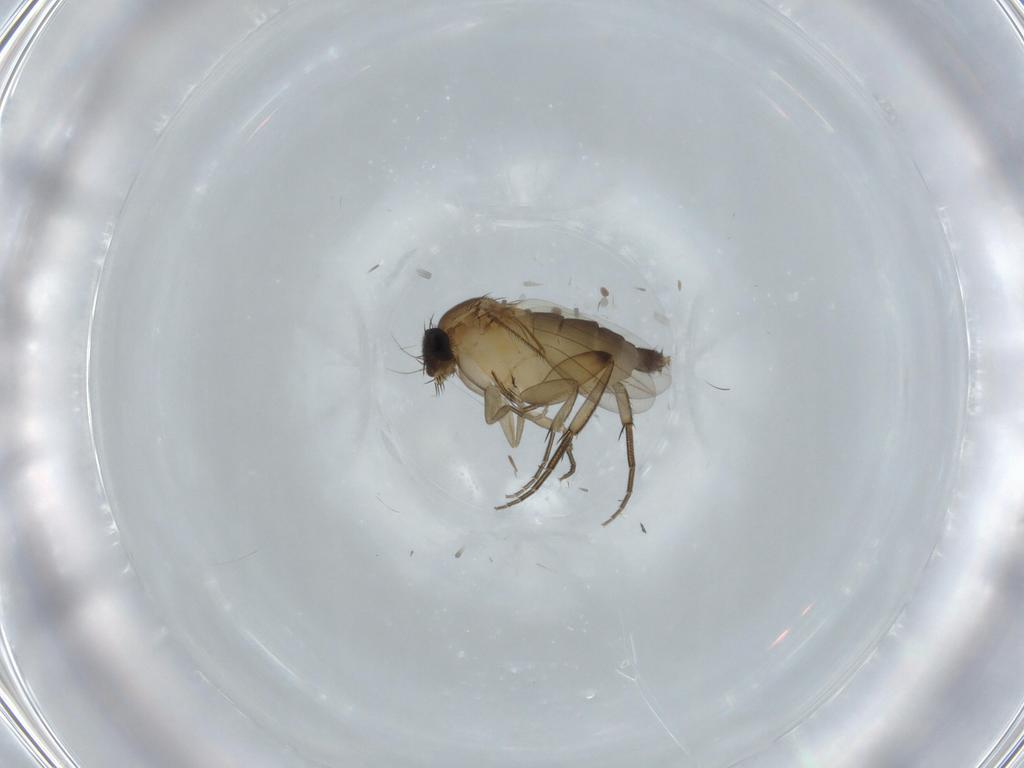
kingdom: Animalia
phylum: Arthropoda
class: Insecta
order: Diptera
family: Phoridae
